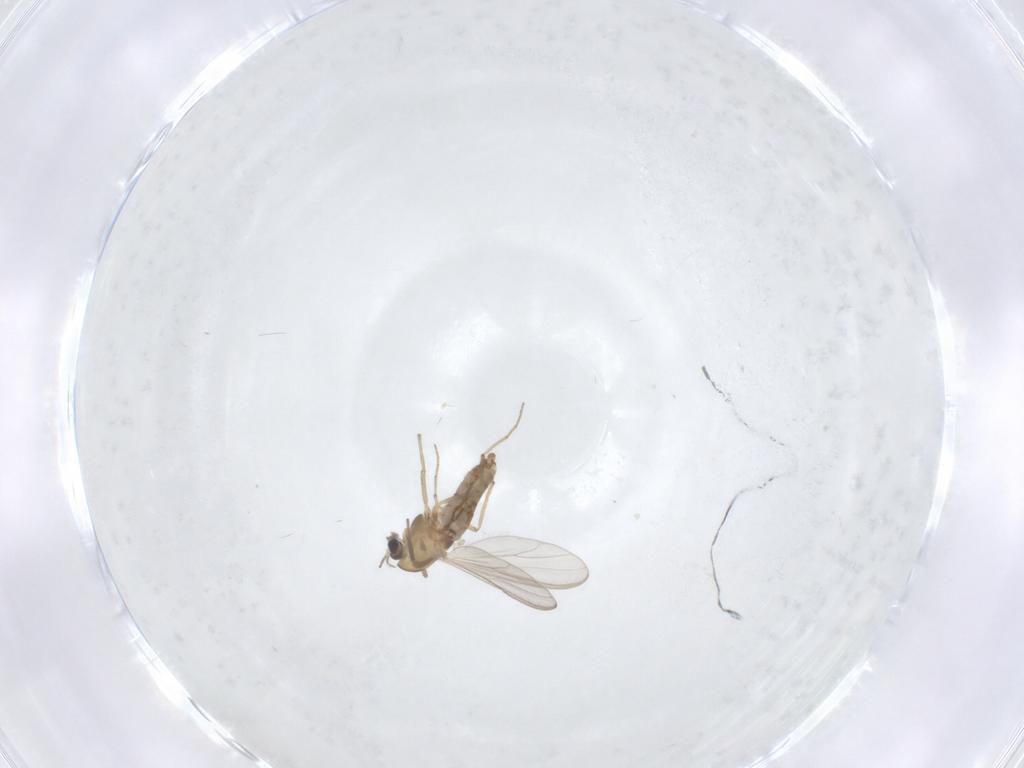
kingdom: Animalia
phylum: Arthropoda
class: Insecta
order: Diptera
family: Chironomidae
